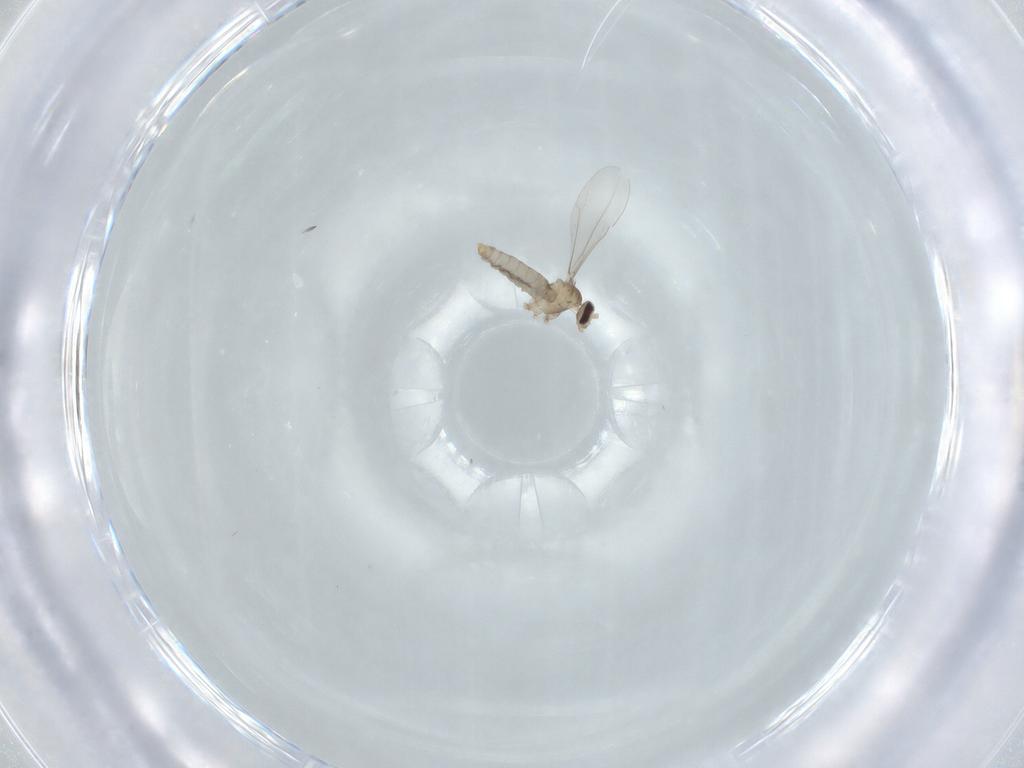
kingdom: Animalia
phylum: Arthropoda
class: Insecta
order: Diptera
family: Cecidomyiidae
